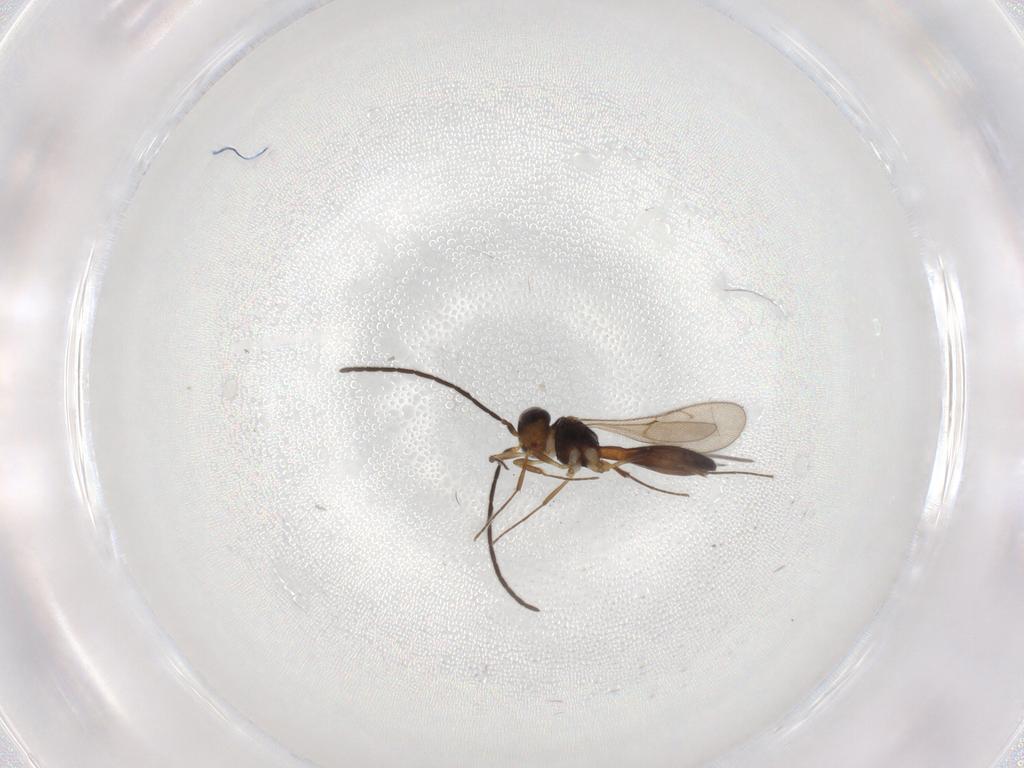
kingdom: Animalia
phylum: Arthropoda
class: Insecta
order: Hymenoptera
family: Scelionidae
